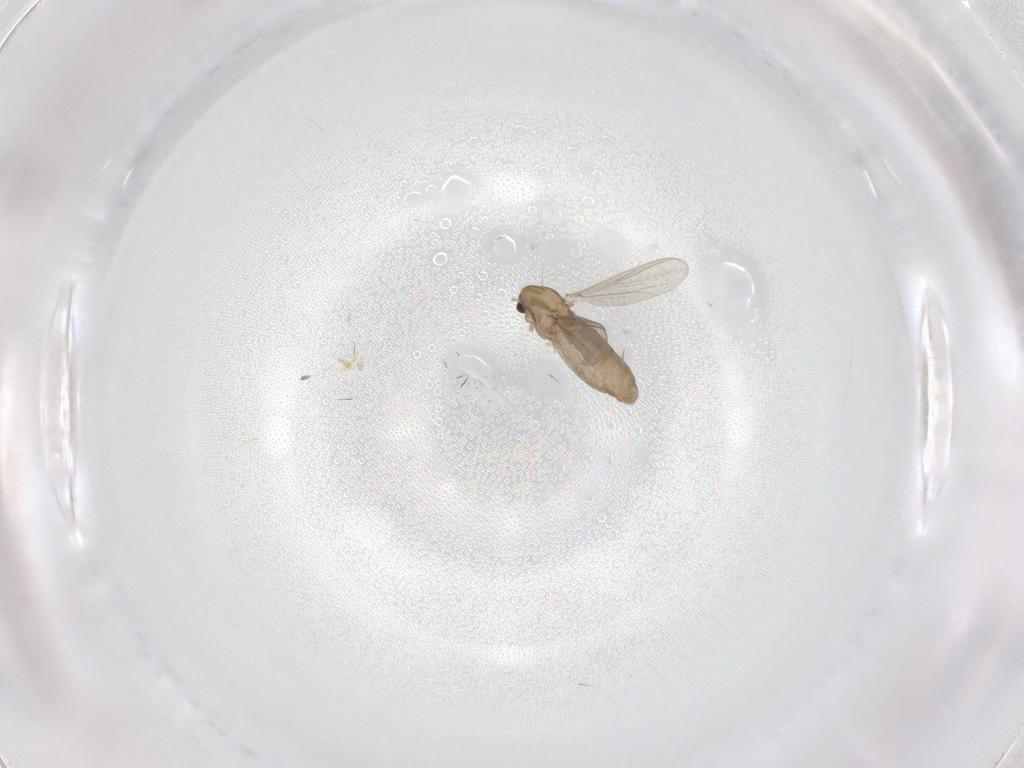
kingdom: Animalia
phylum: Arthropoda
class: Insecta
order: Diptera
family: Chironomidae
